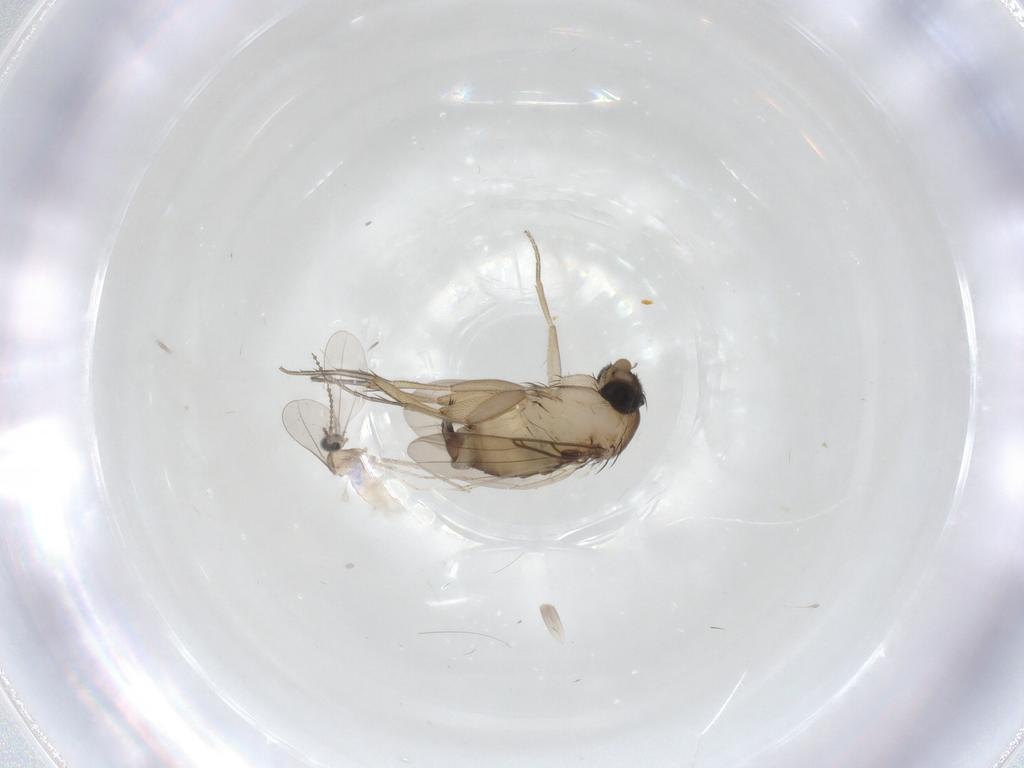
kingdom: Animalia
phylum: Arthropoda
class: Insecta
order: Diptera
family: Phoridae
